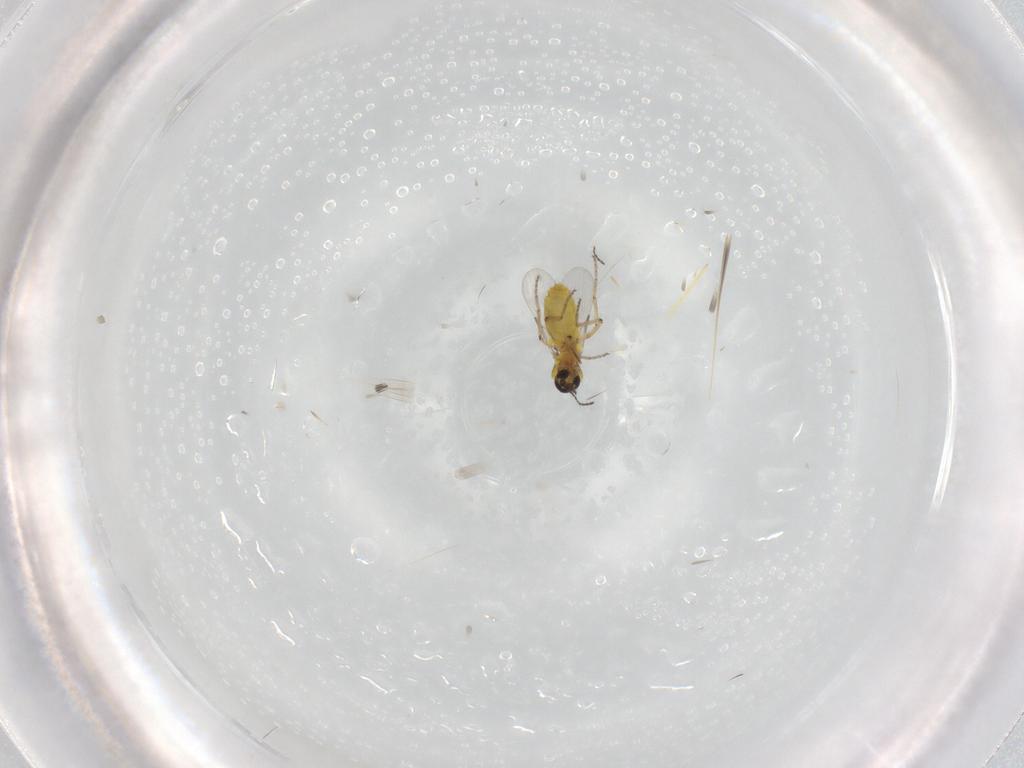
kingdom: Animalia
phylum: Arthropoda
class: Insecta
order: Diptera
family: Ceratopogonidae
